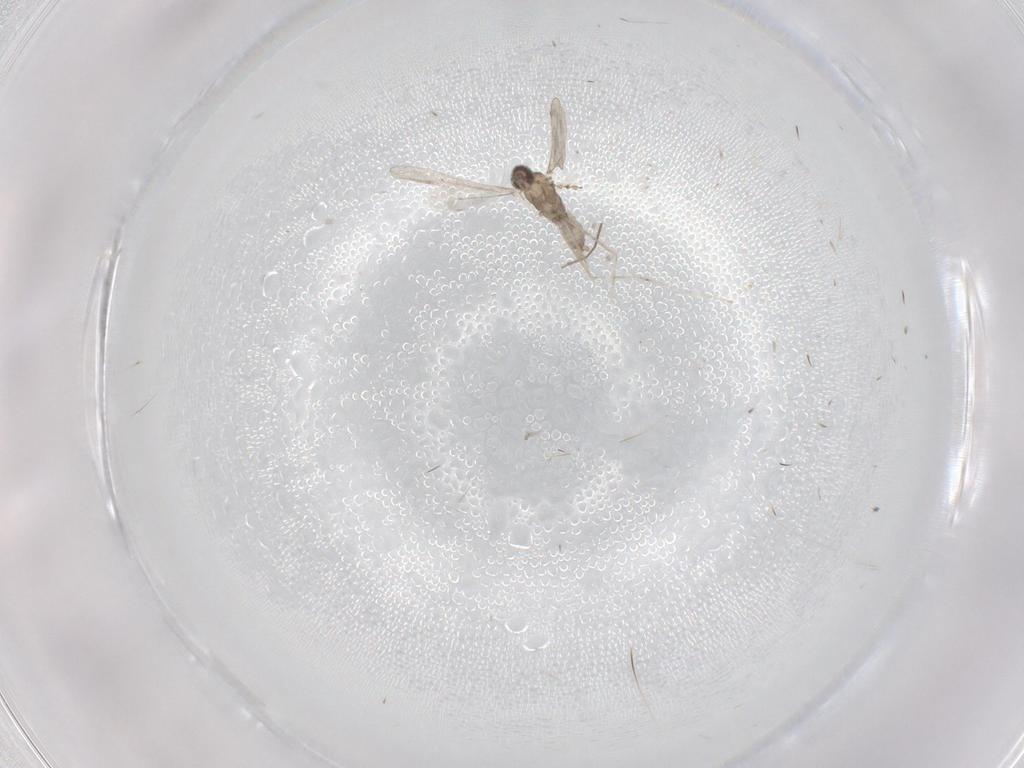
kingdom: Animalia
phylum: Arthropoda
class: Insecta
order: Diptera
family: Cecidomyiidae
